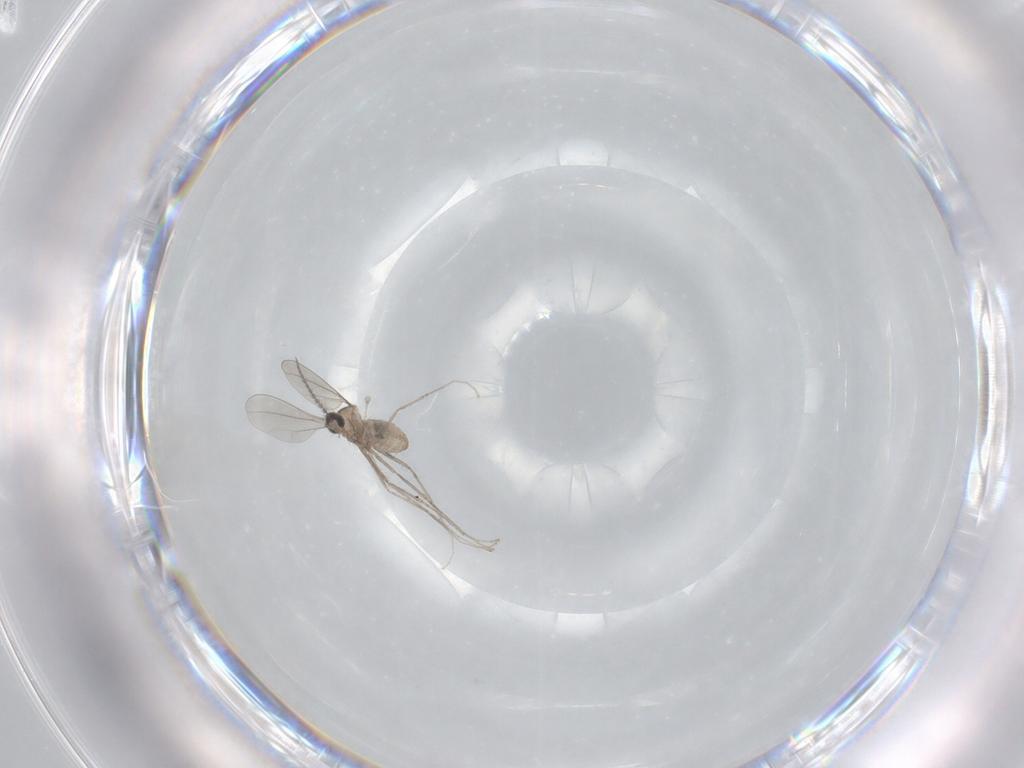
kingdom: Animalia
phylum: Arthropoda
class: Insecta
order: Diptera
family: Cecidomyiidae
